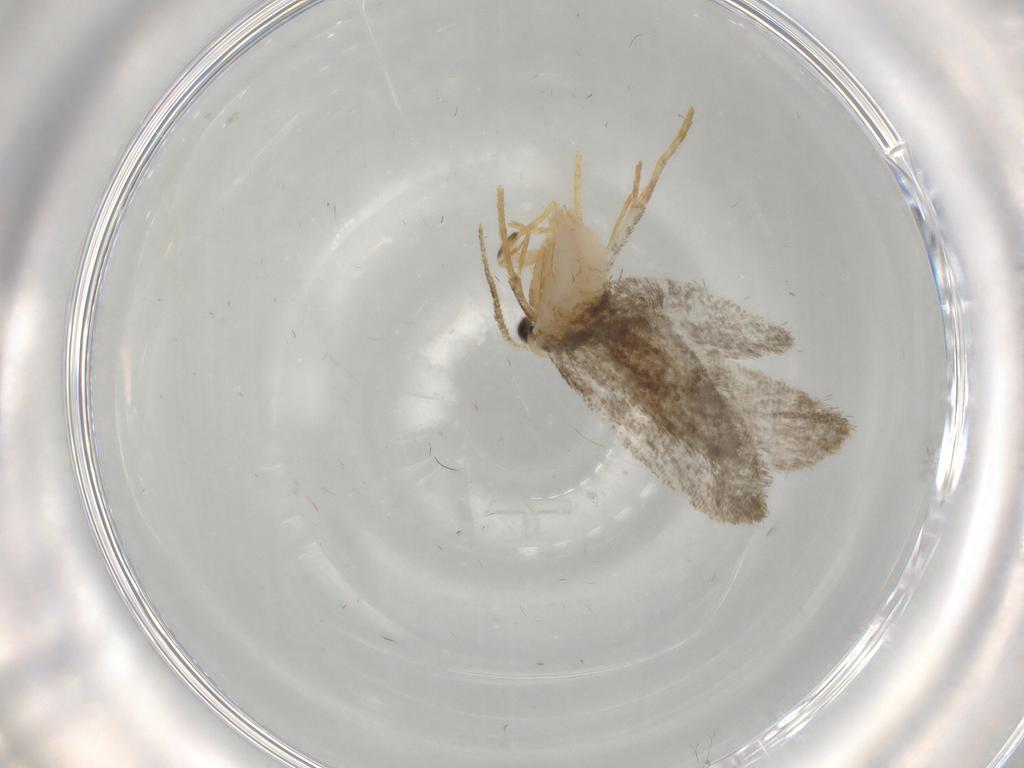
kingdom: Animalia
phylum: Arthropoda
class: Insecta
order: Lepidoptera
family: Psychidae
